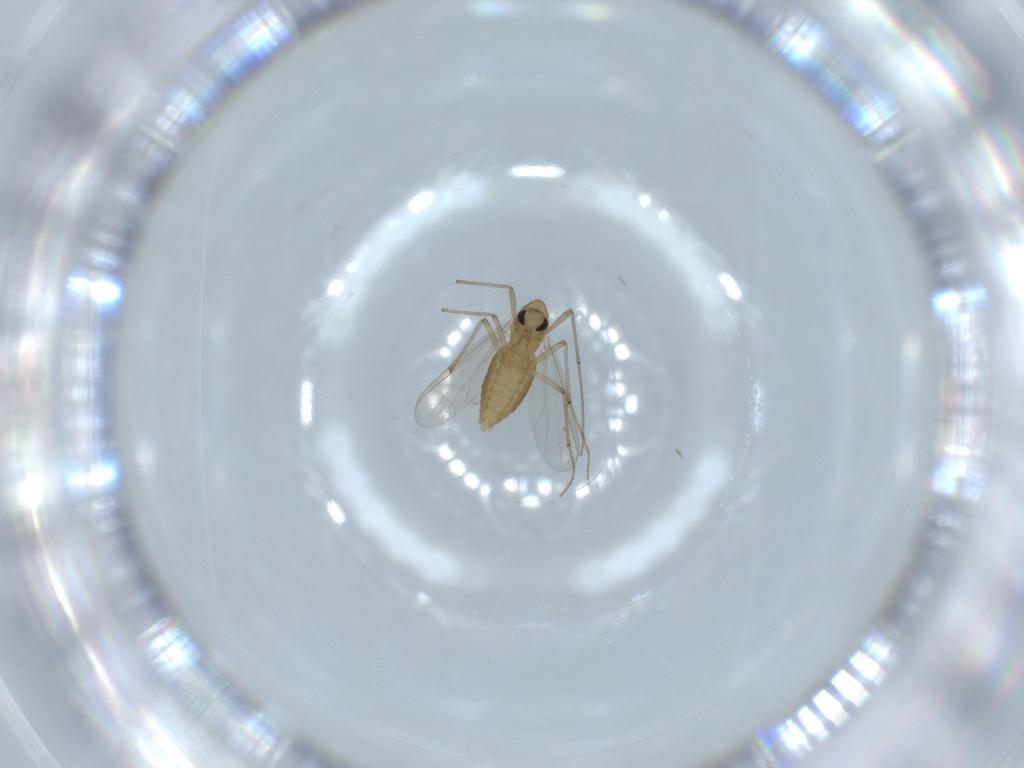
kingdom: Animalia
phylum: Arthropoda
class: Insecta
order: Diptera
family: Chironomidae
